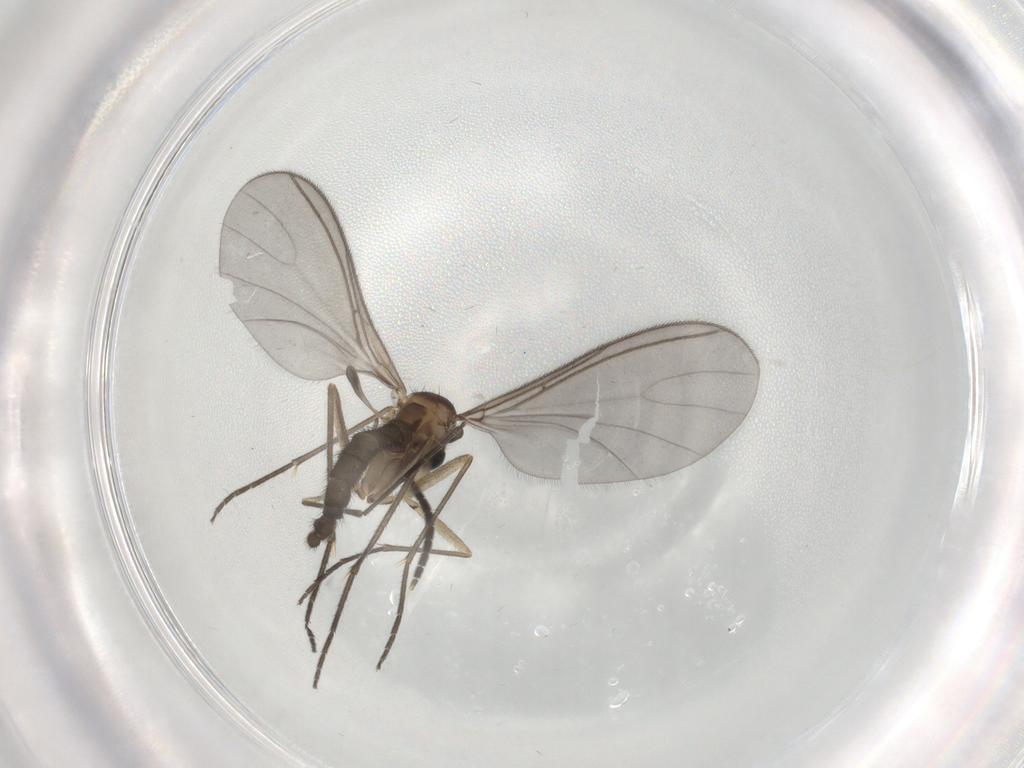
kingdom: Animalia
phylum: Arthropoda
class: Insecta
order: Diptera
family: Sciaridae
